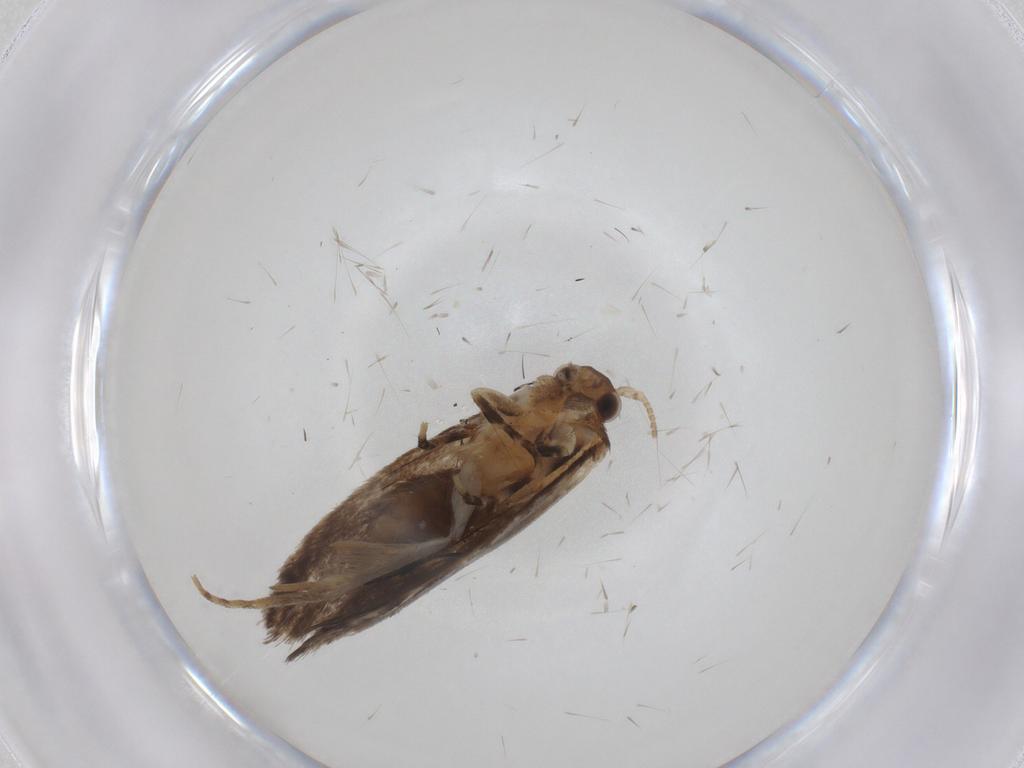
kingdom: Animalia
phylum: Arthropoda
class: Insecta
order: Lepidoptera
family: Dryadaulidae
